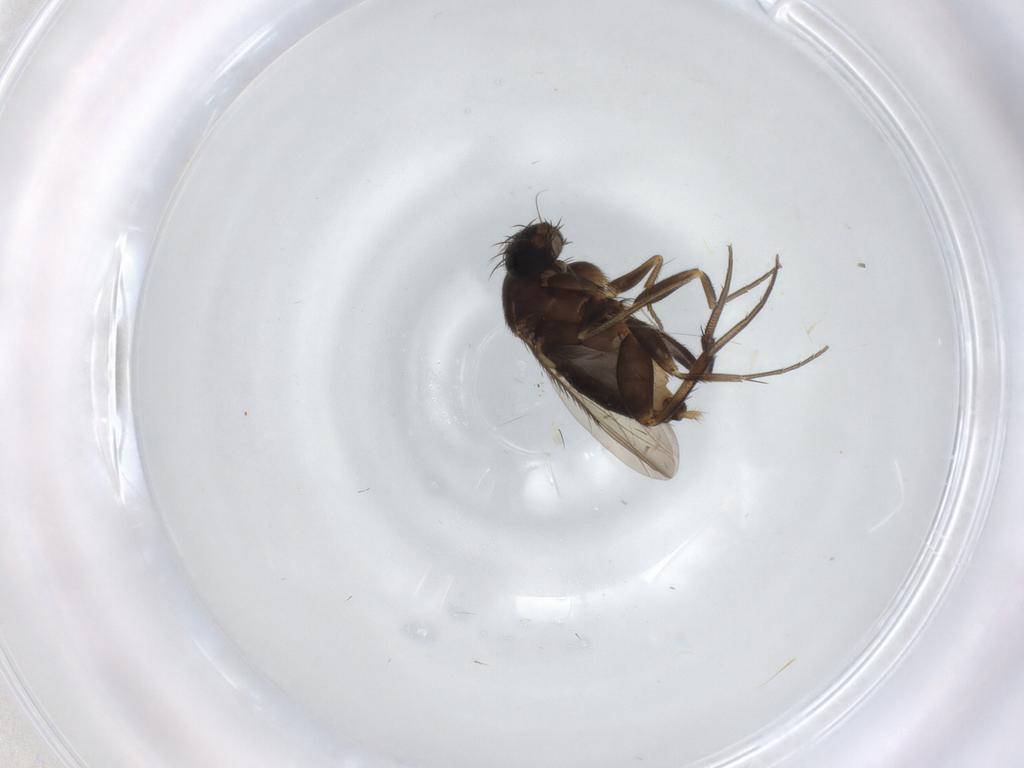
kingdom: Animalia
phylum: Arthropoda
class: Insecta
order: Diptera
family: Phoridae
